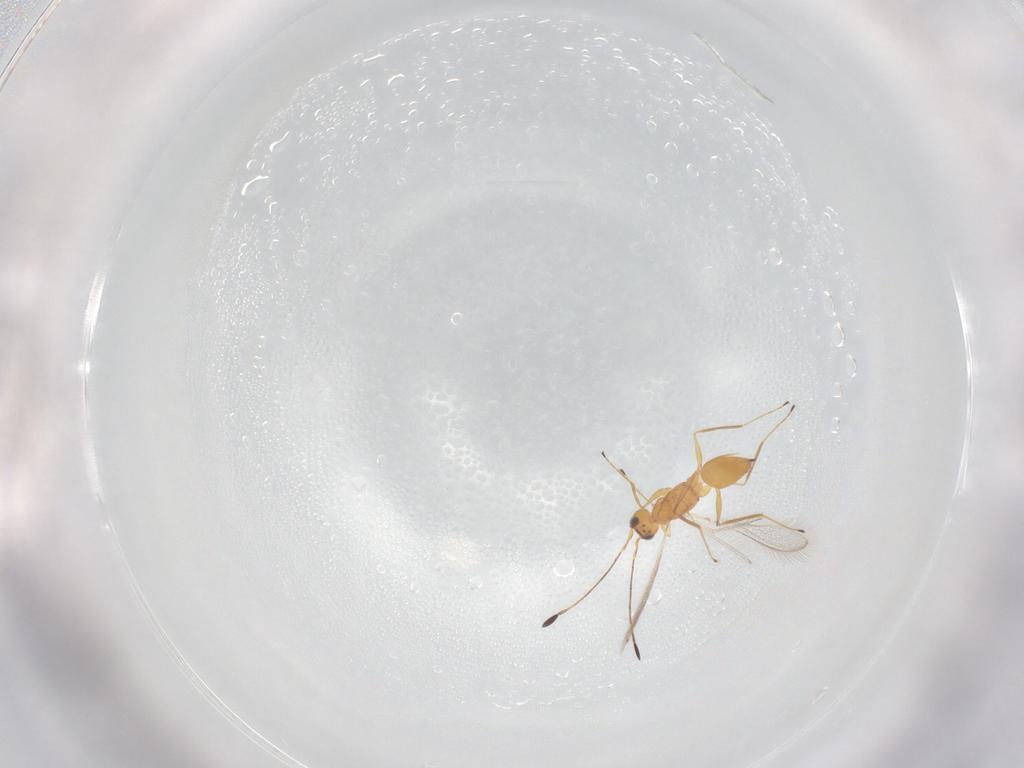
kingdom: Animalia
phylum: Arthropoda
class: Insecta
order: Hymenoptera
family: Mymaridae
